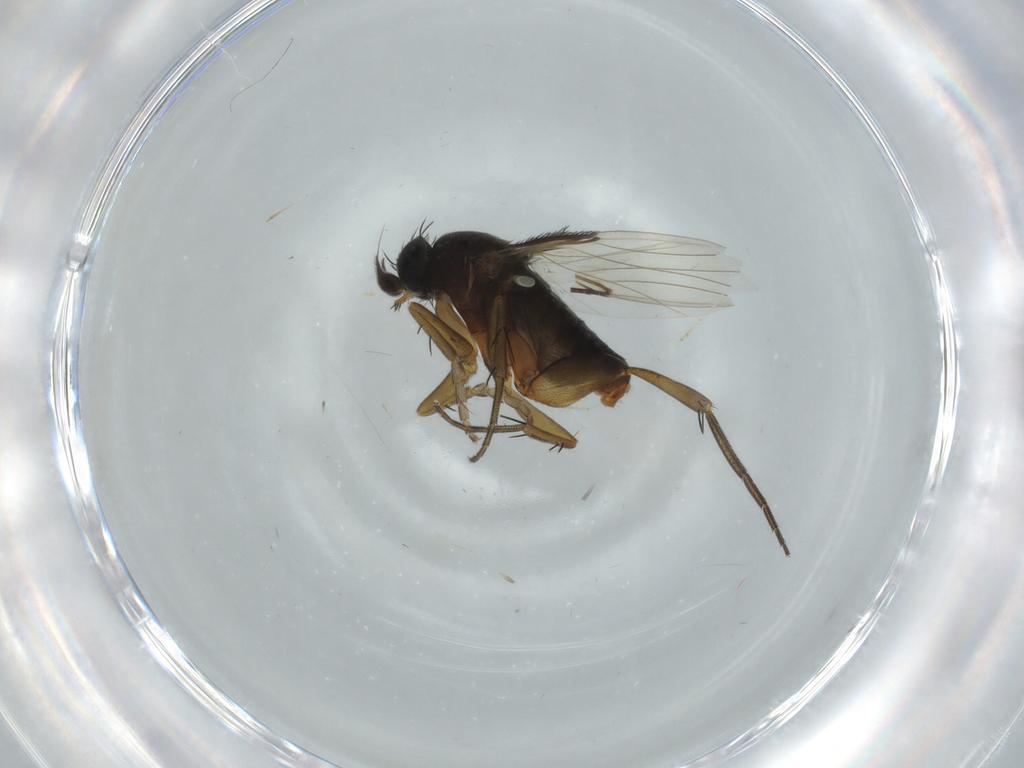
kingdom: Animalia
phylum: Arthropoda
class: Insecta
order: Diptera
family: Phoridae
